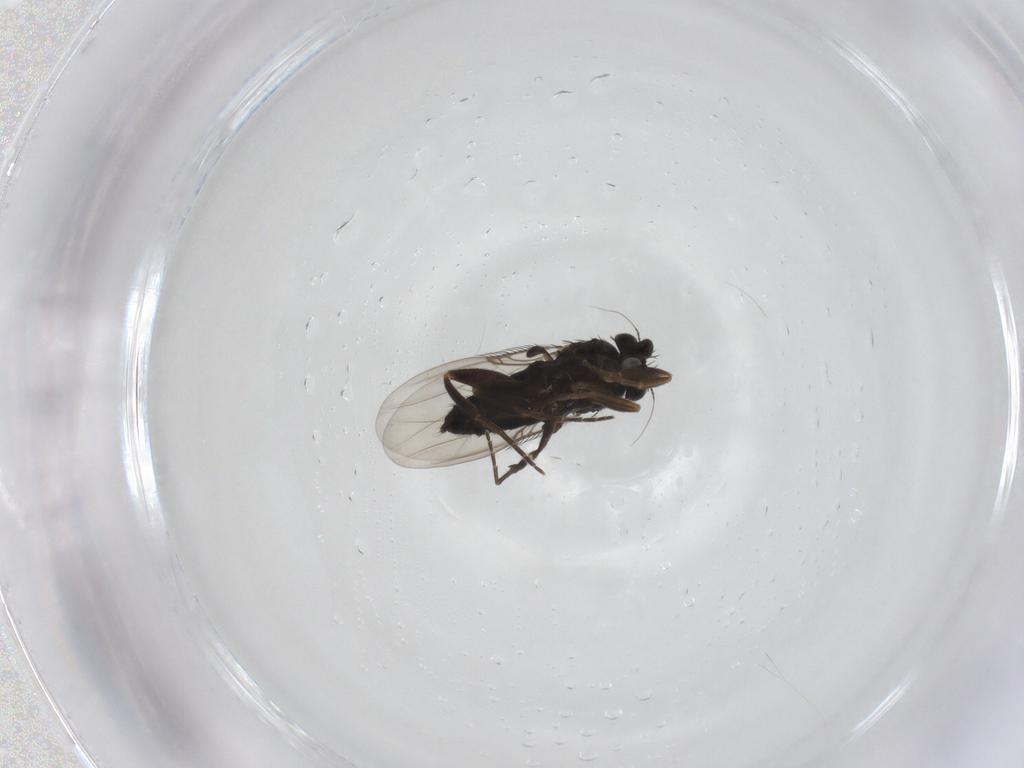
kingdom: Animalia
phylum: Arthropoda
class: Insecta
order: Diptera
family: Phoridae
